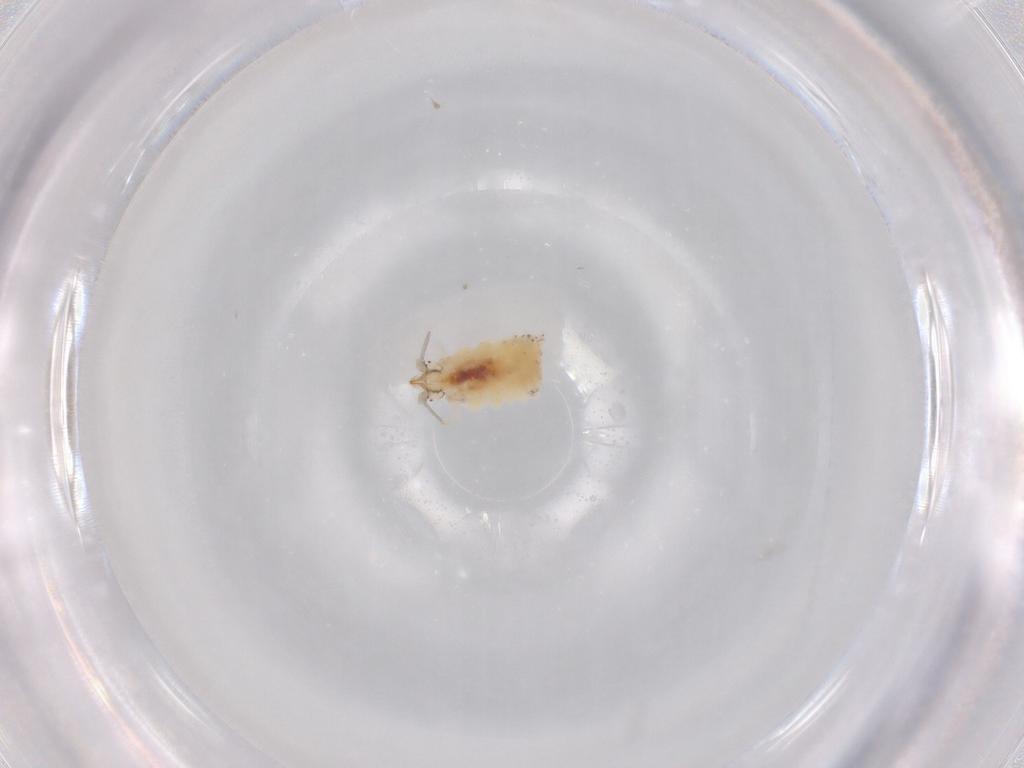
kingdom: Animalia
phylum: Arthropoda
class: Insecta
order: Neuroptera
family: Coniopterygidae
